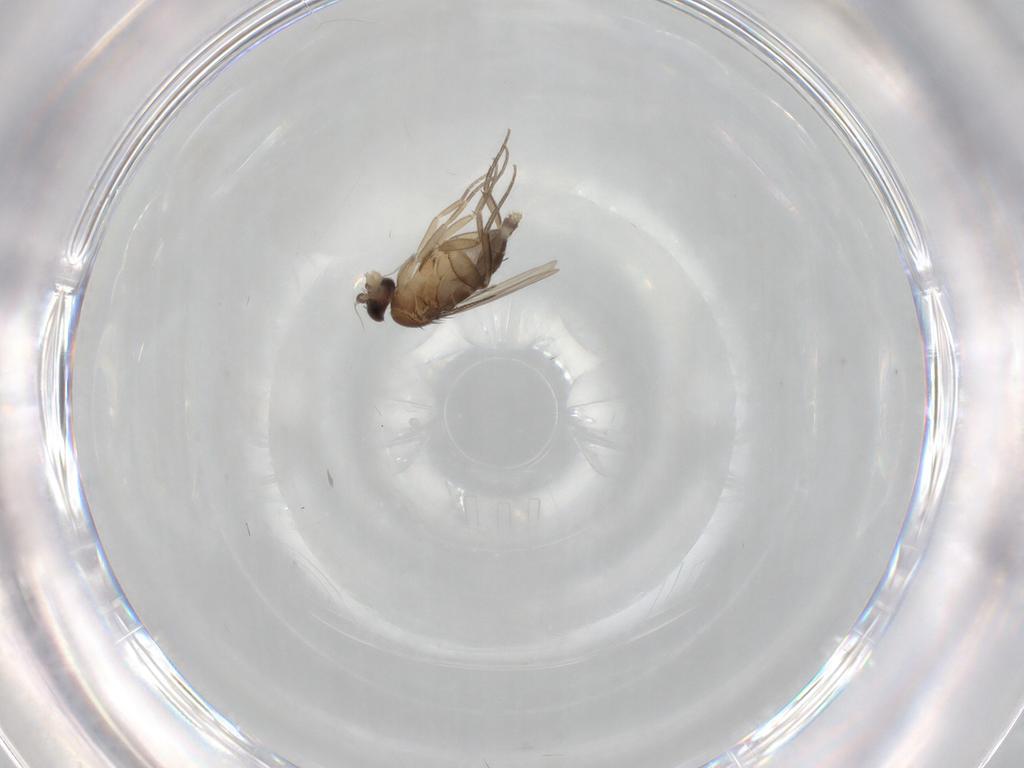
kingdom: Animalia
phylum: Arthropoda
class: Insecta
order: Diptera
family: Phoridae
